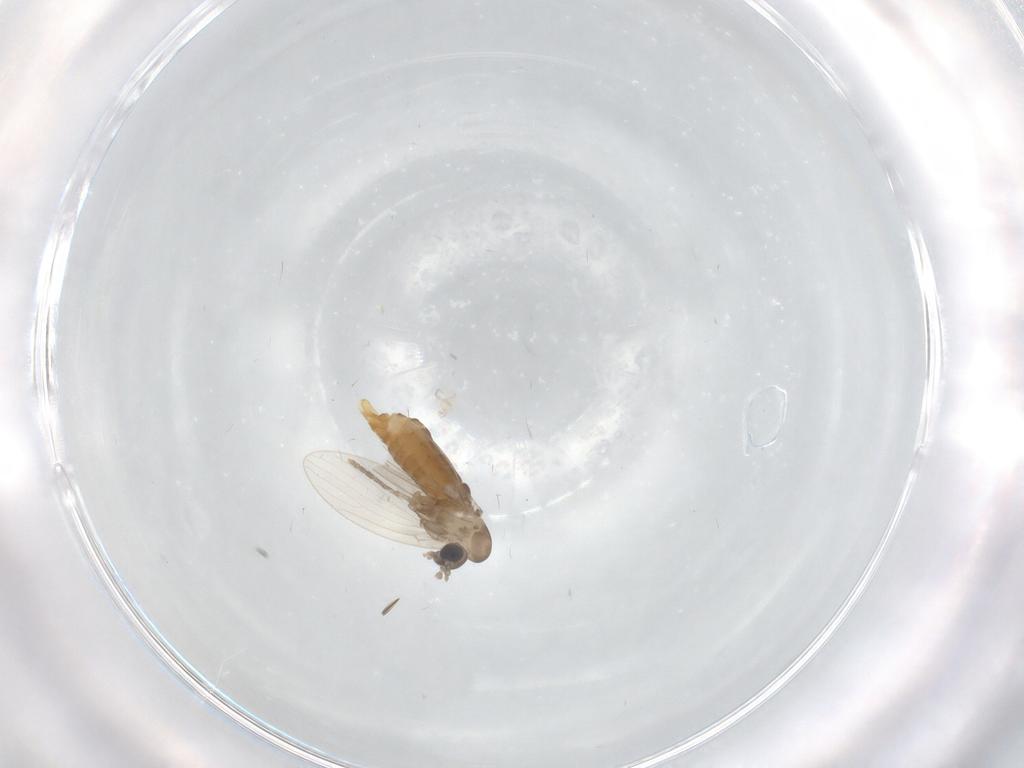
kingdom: Animalia
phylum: Arthropoda
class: Insecta
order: Diptera
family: Psychodidae
